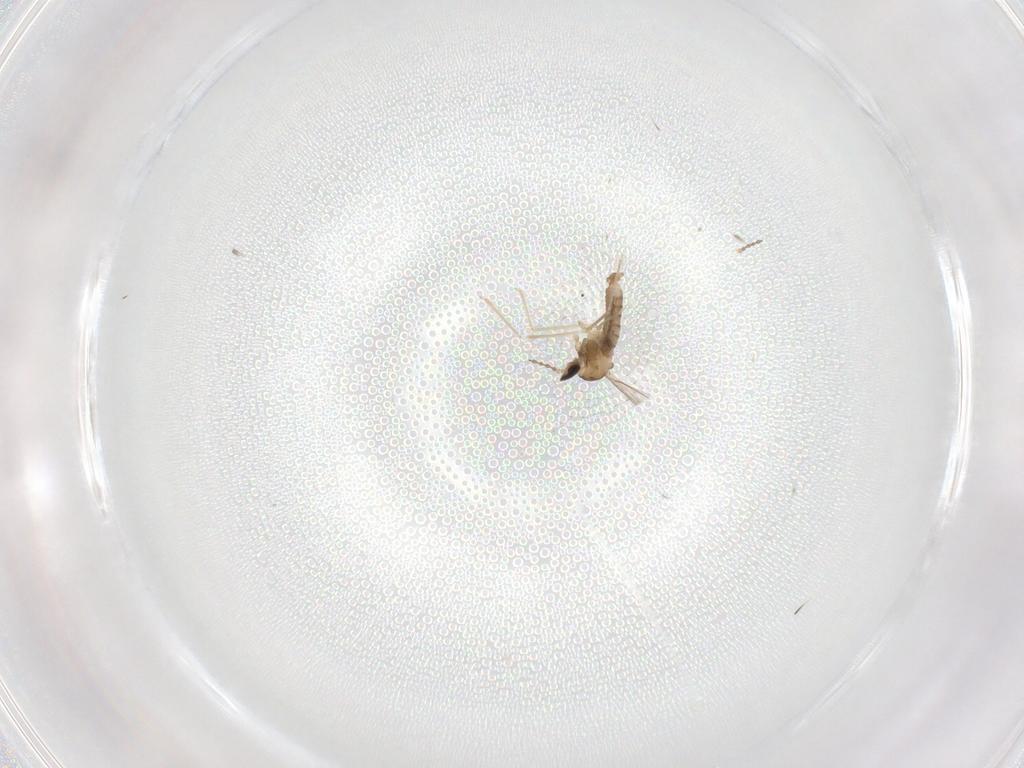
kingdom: Animalia
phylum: Arthropoda
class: Insecta
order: Diptera
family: Cecidomyiidae
